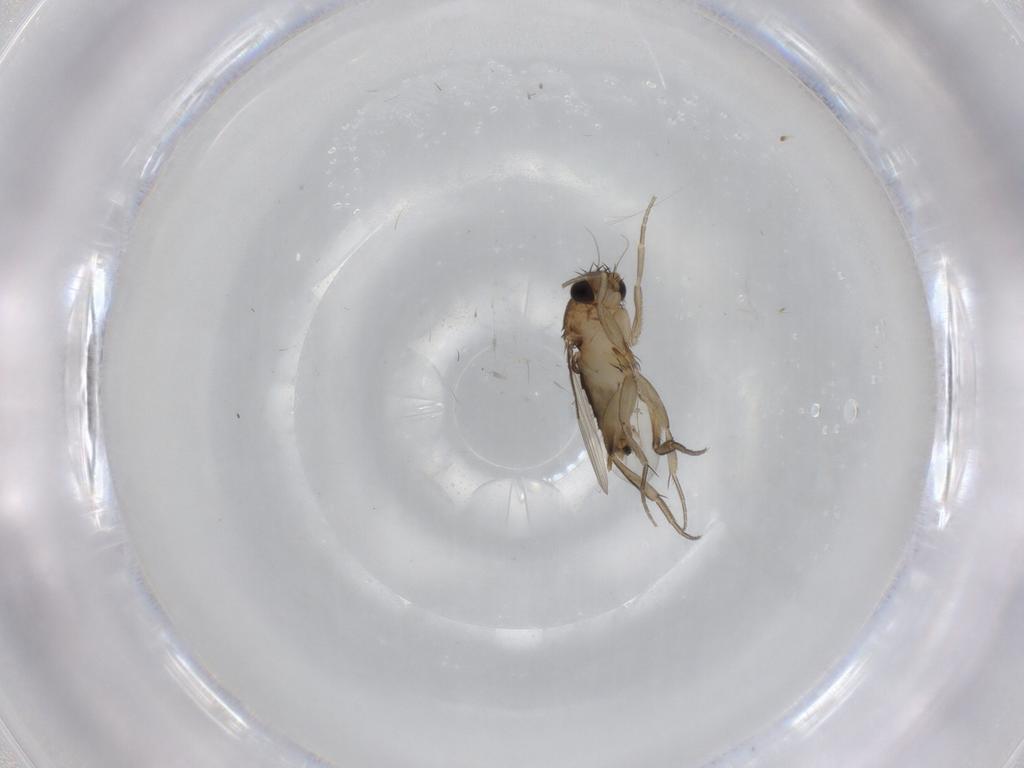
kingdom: Animalia
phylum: Arthropoda
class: Insecta
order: Diptera
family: Phoridae
